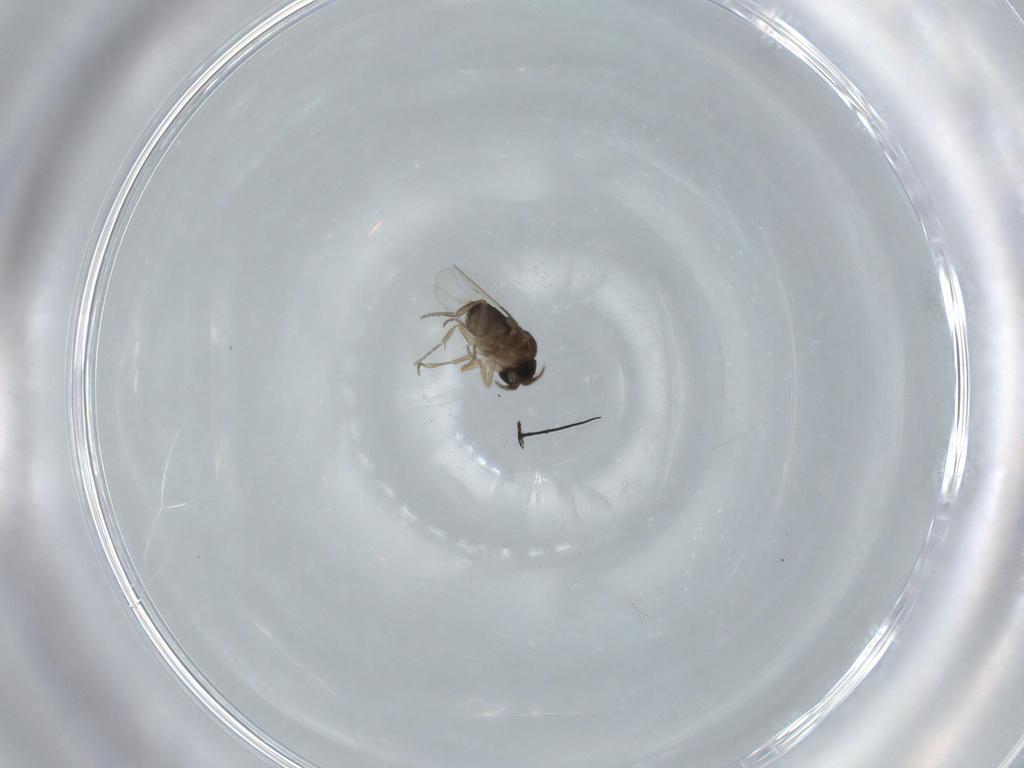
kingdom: Animalia
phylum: Arthropoda
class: Insecta
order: Diptera
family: Phoridae
